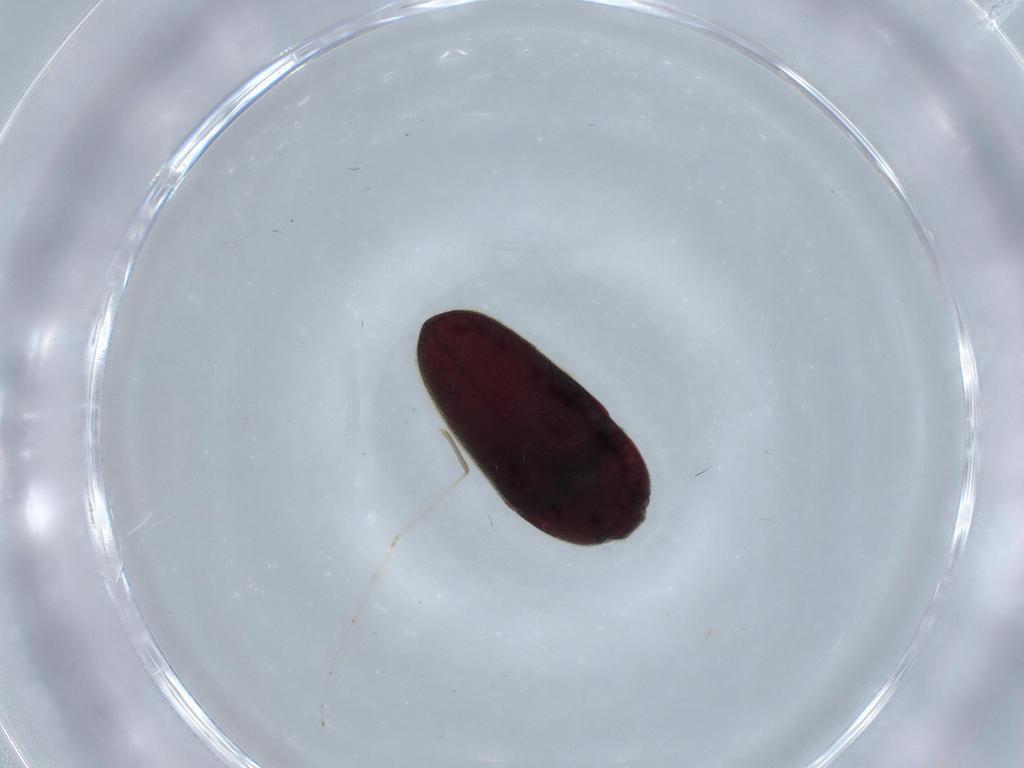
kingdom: Animalia
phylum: Arthropoda
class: Insecta
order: Coleoptera
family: Throscidae
